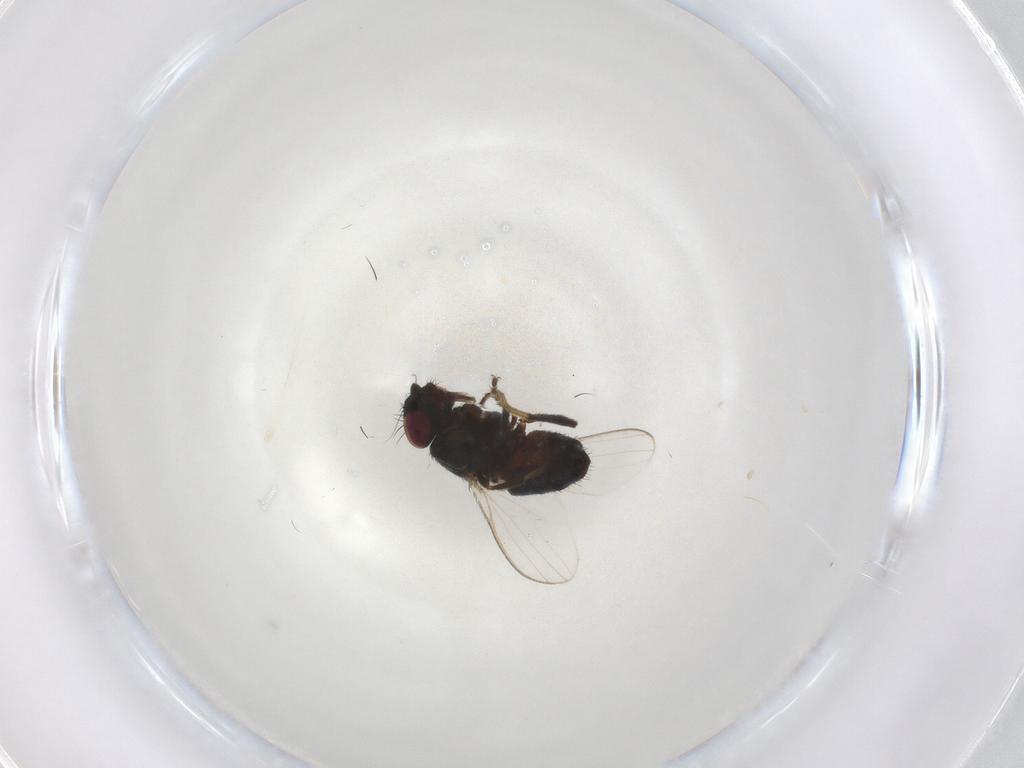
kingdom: Animalia
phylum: Arthropoda
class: Insecta
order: Diptera
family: Milichiidae
